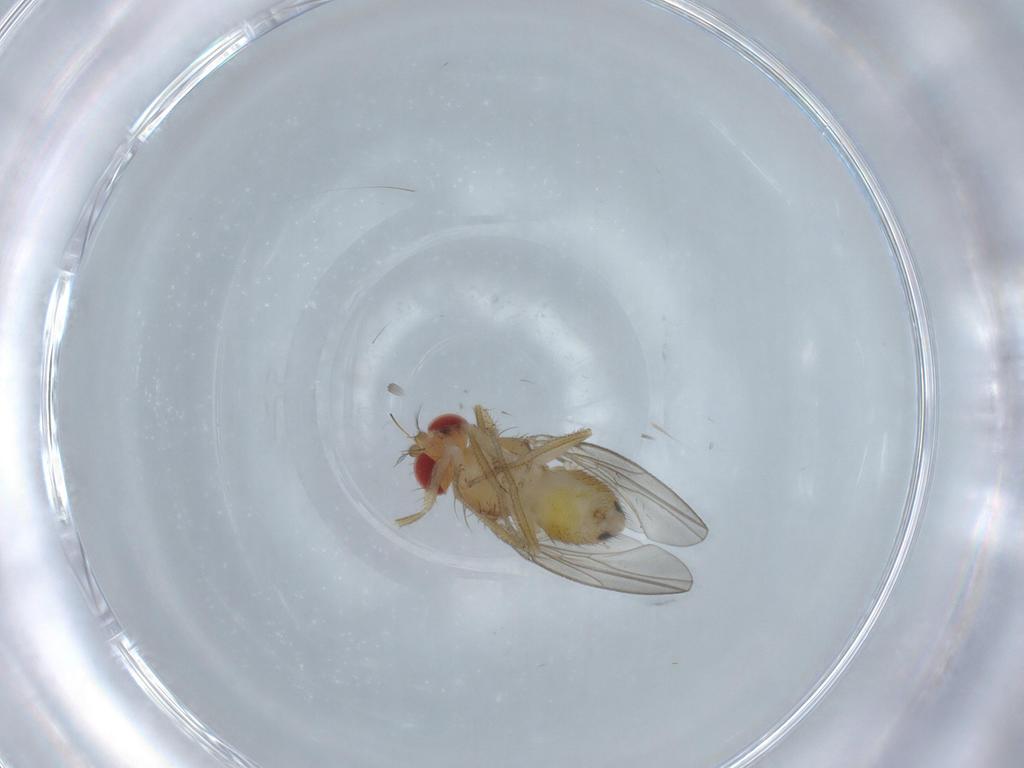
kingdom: Animalia
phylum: Arthropoda
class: Insecta
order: Diptera
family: Drosophilidae
